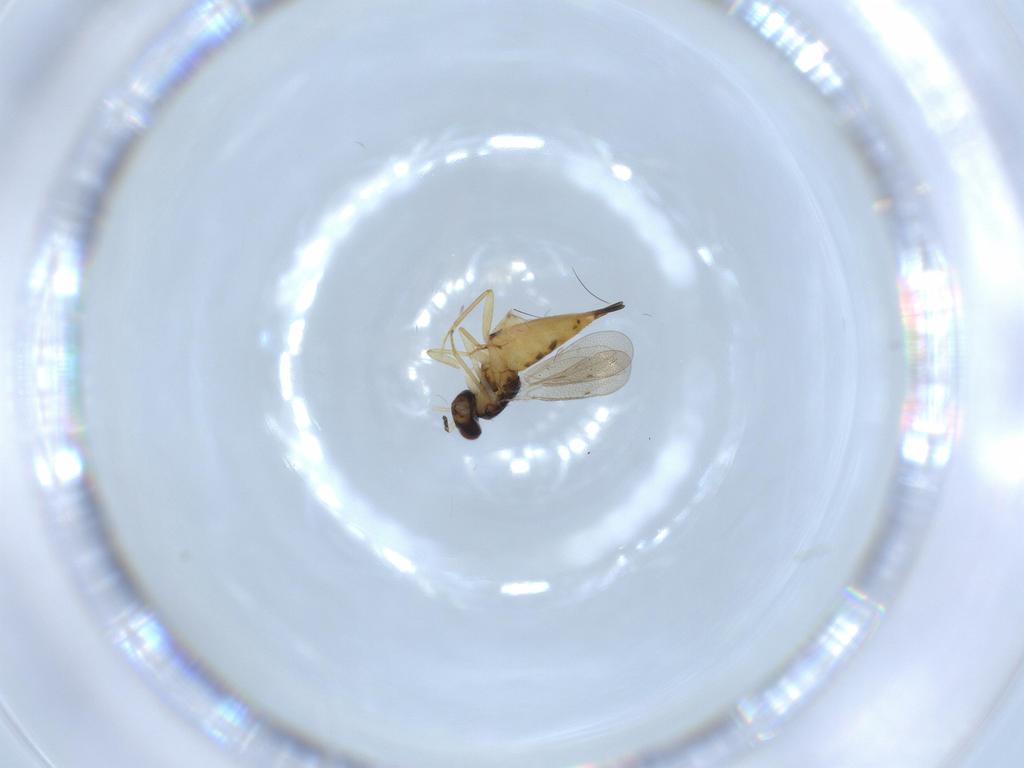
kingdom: Animalia
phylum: Arthropoda
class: Insecta
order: Hymenoptera
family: Eulophidae
